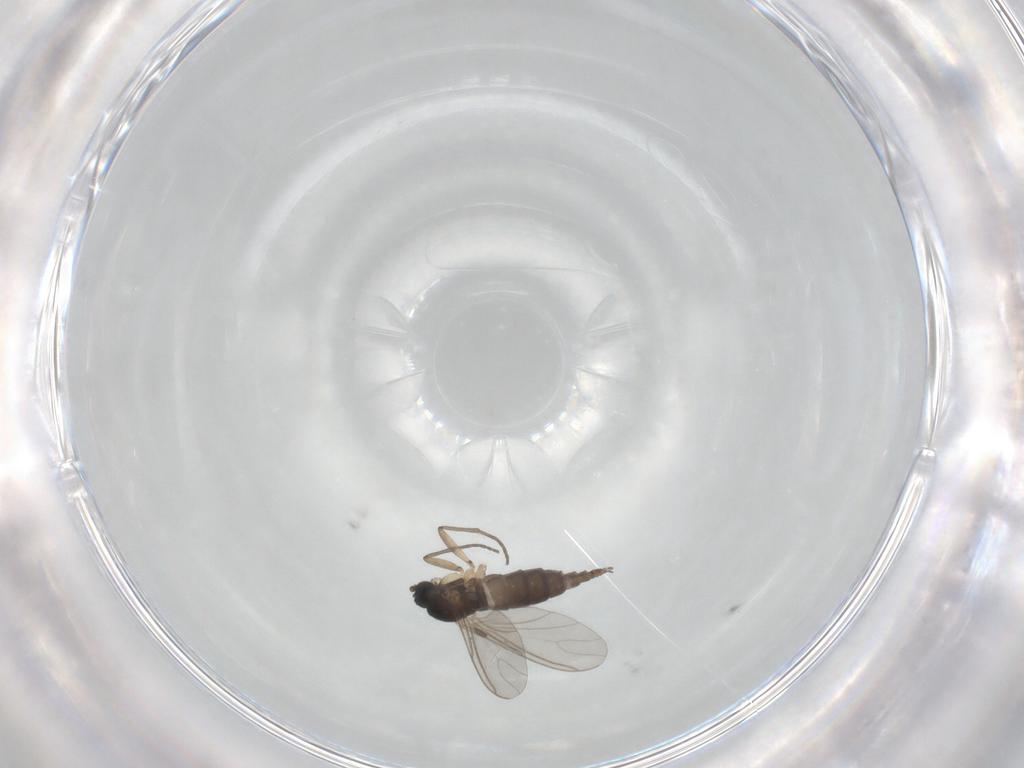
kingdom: Animalia
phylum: Arthropoda
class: Insecta
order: Diptera
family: Sciaridae
